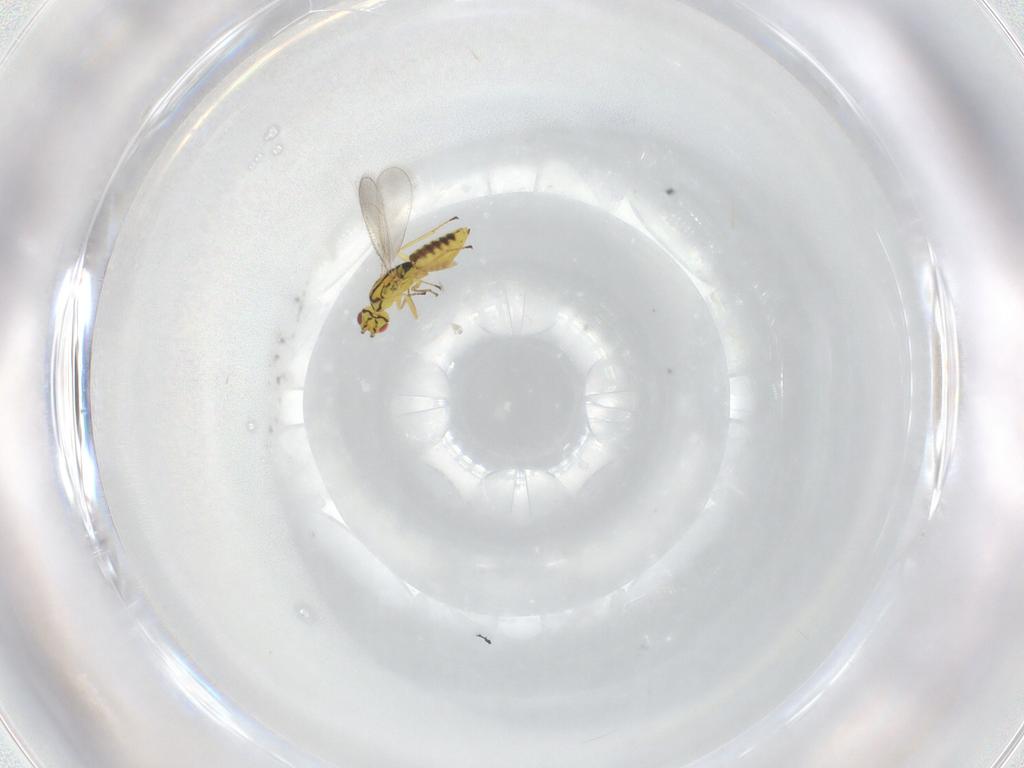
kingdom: Animalia
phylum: Arthropoda
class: Insecta
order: Hymenoptera
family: Eulophidae
